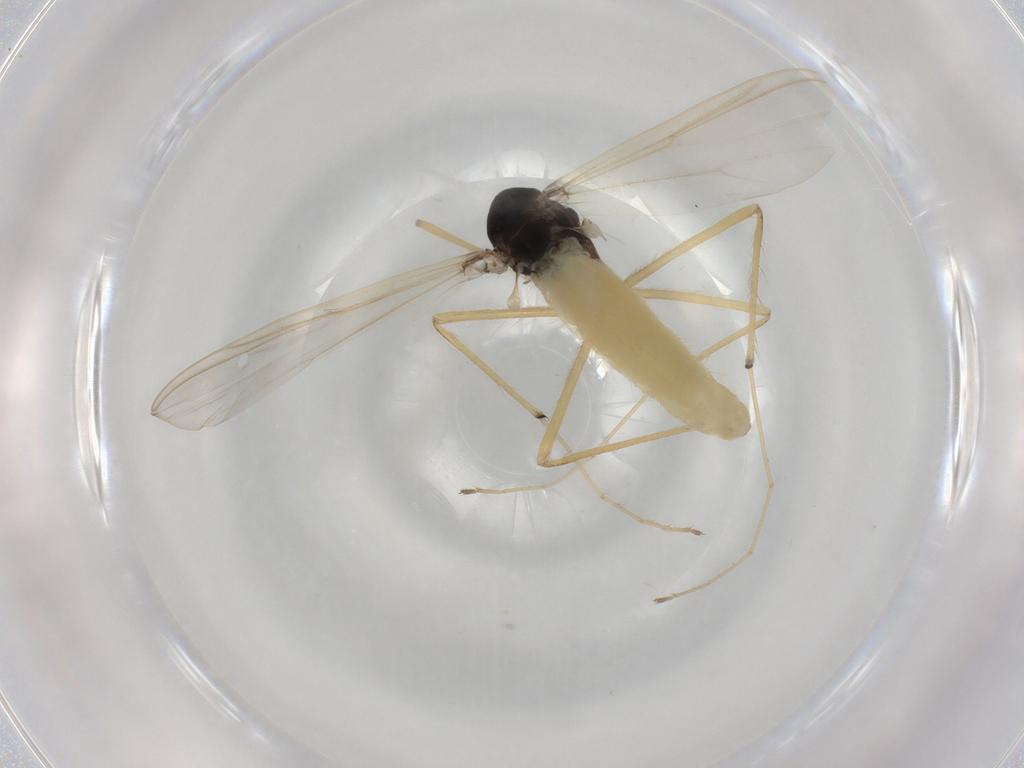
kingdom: Animalia
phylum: Arthropoda
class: Insecta
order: Diptera
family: Chironomidae
